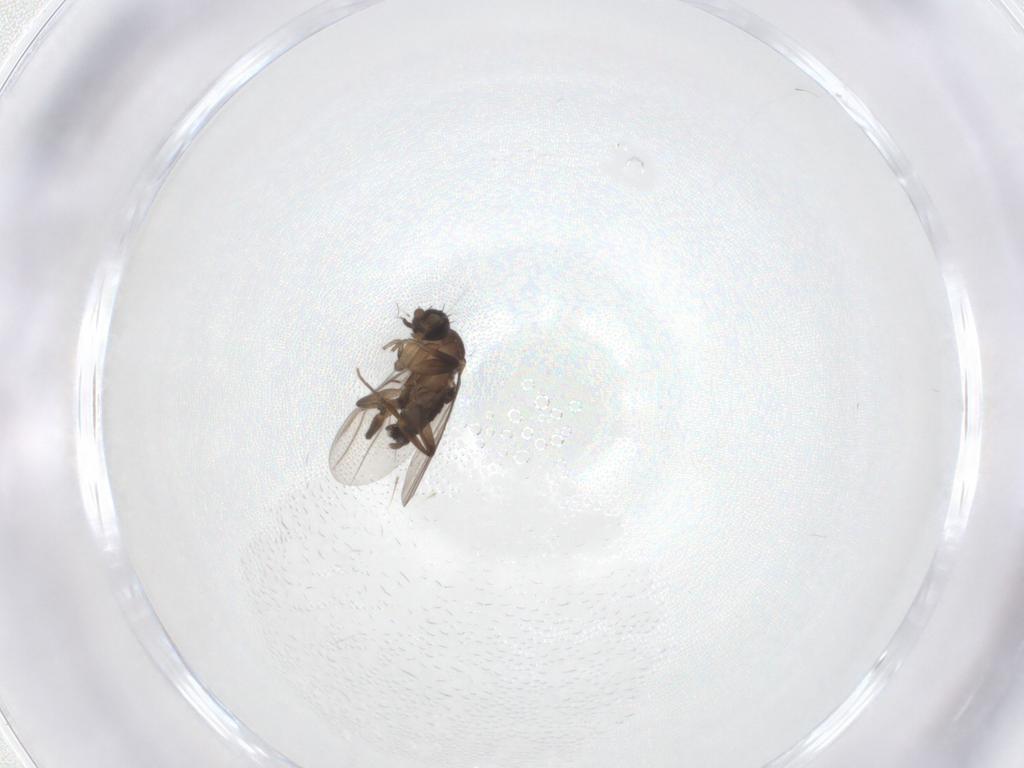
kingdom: Animalia
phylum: Arthropoda
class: Insecta
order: Diptera
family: Phoridae
